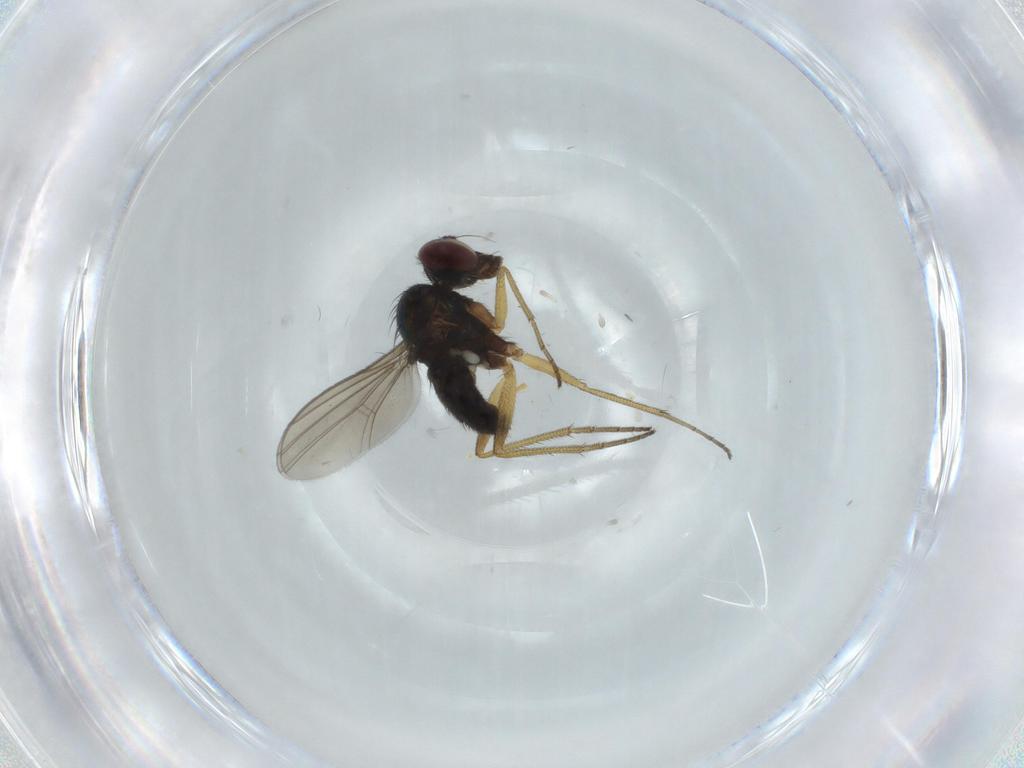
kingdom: Animalia
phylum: Arthropoda
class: Insecta
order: Diptera
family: Dolichopodidae
